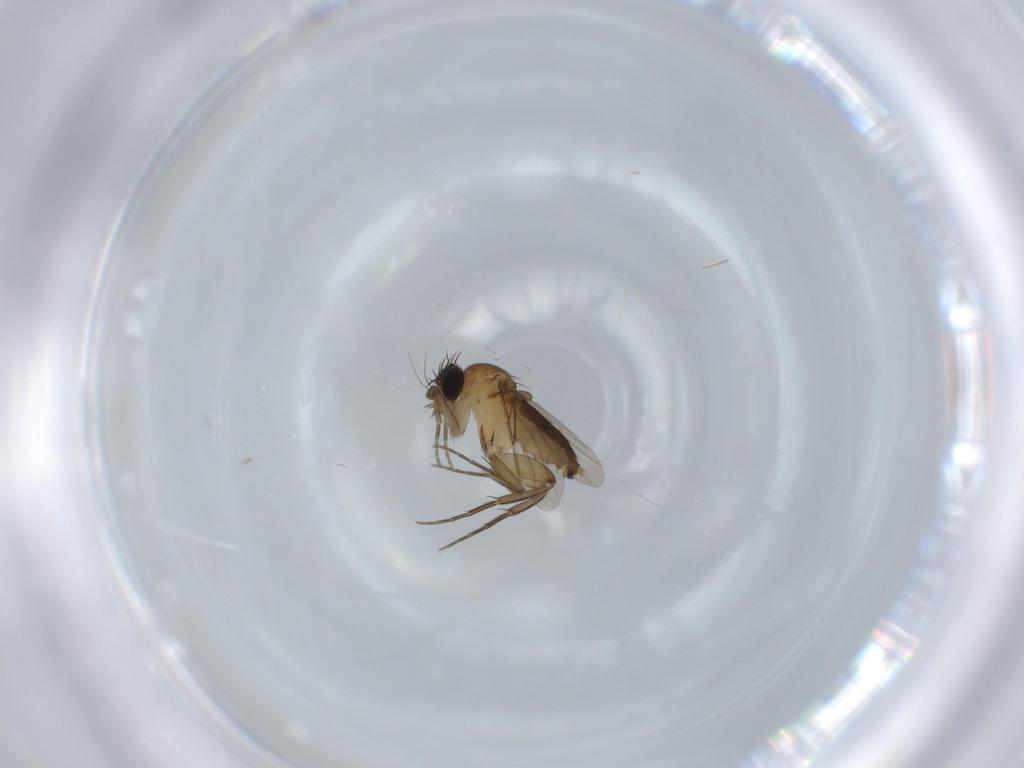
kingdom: Animalia
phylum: Arthropoda
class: Insecta
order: Diptera
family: Phoridae
